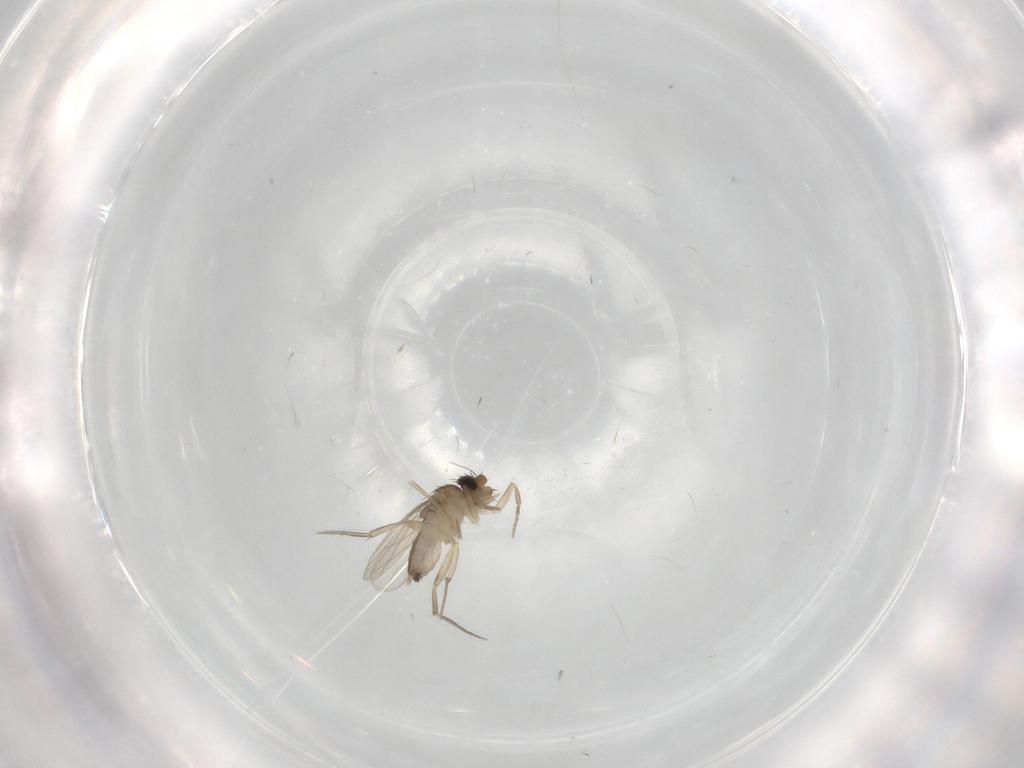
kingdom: Animalia
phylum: Arthropoda
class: Insecta
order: Diptera
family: Phoridae
